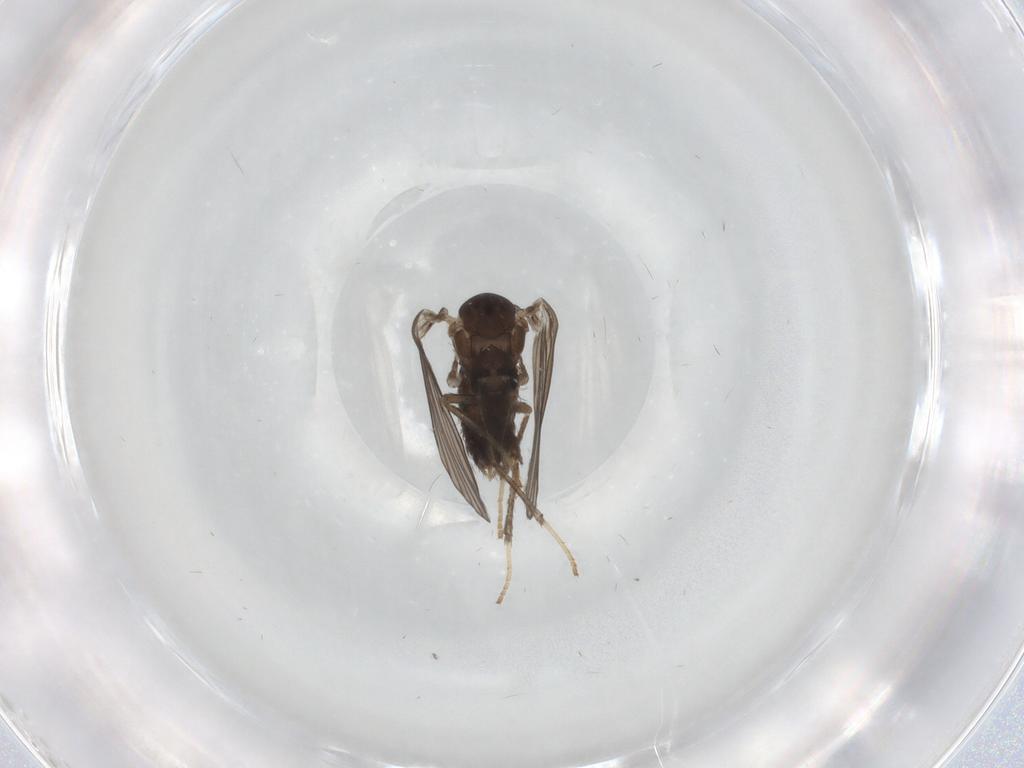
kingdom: Animalia
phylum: Arthropoda
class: Insecta
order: Diptera
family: Psychodidae
